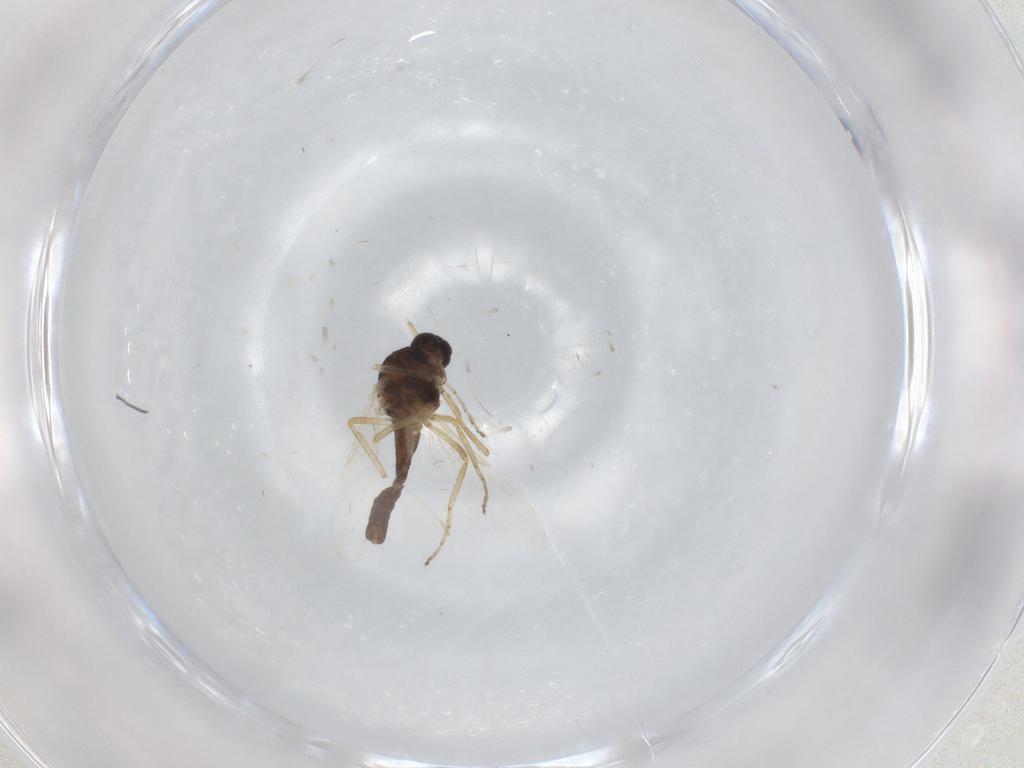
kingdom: Animalia
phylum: Arthropoda
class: Insecta
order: Diptera
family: Ceratopogonidae
